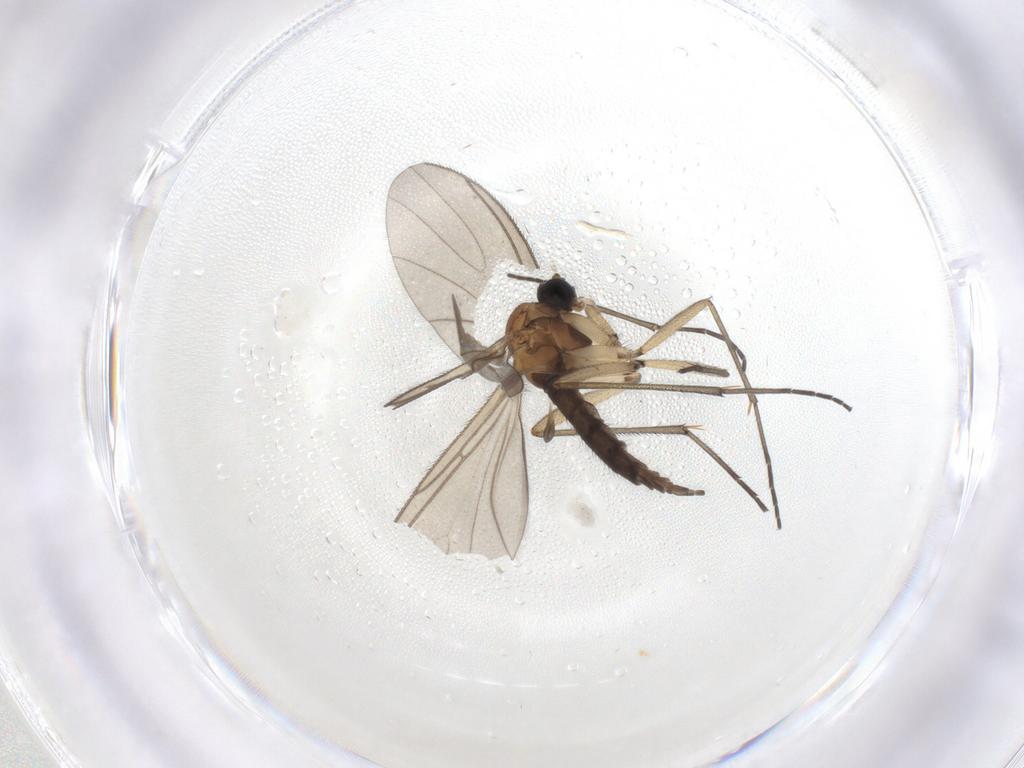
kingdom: Animalia
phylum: Arthropoda
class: Insecta
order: Diptera
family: Sciaridae
